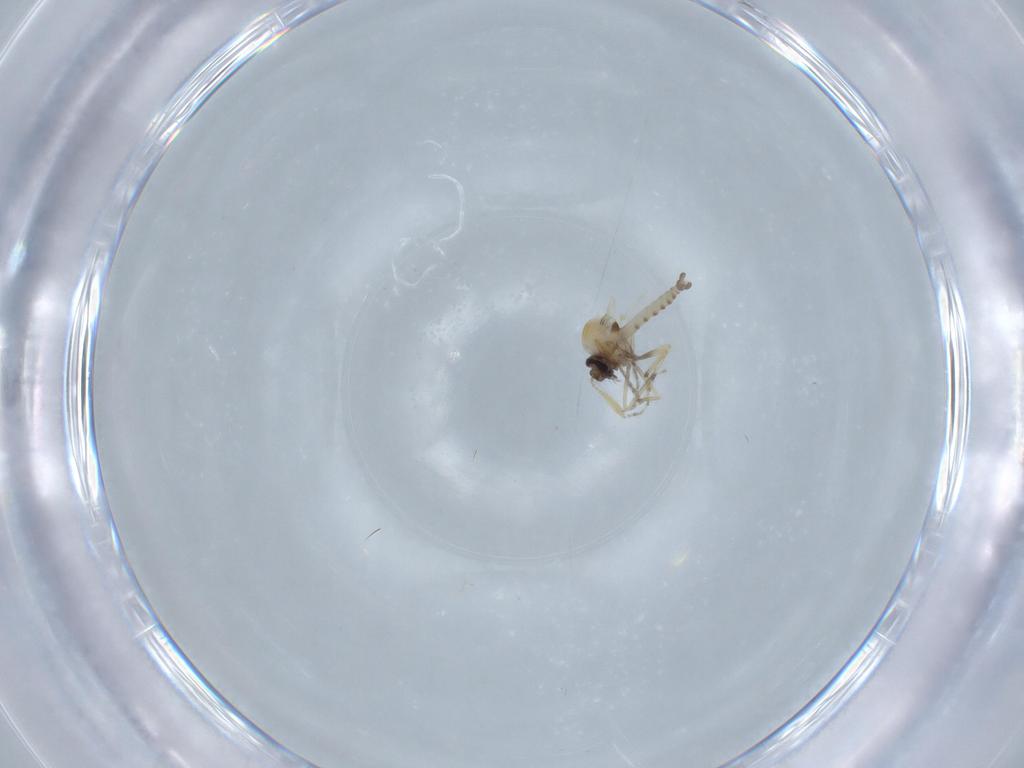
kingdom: Animalia
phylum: Arthropoda
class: Insecta
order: Diptera
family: Ceratopogonidae
